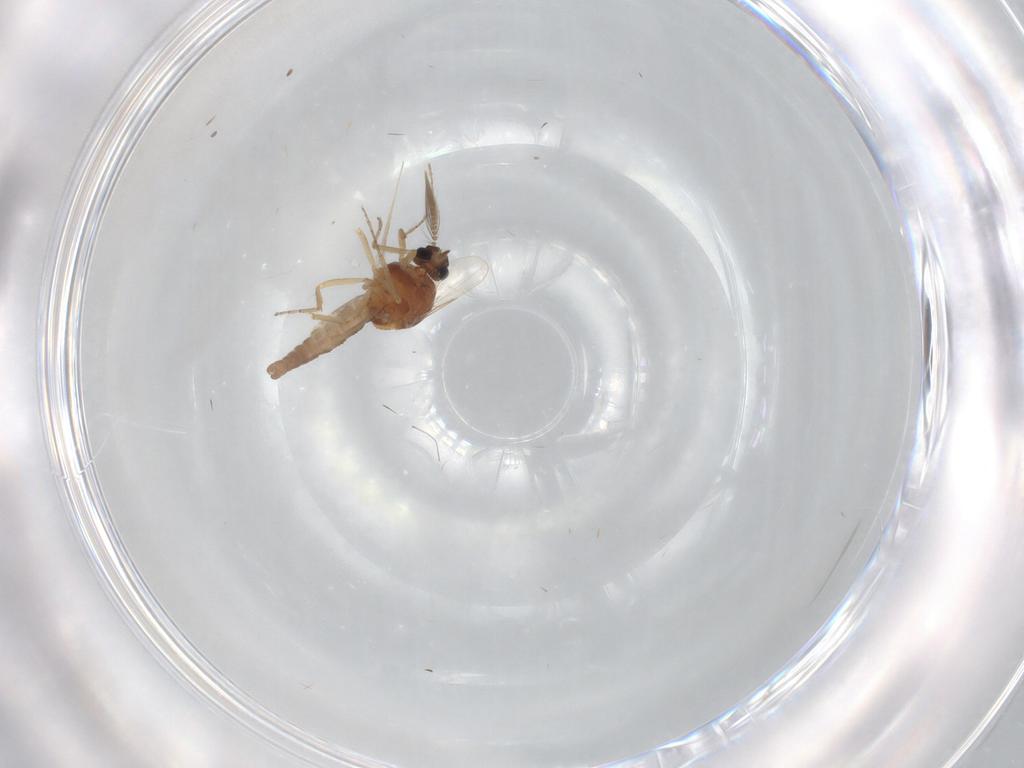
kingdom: Animalia
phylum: Arthropoda
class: Insecta
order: Diptera
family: Ceratopogonidae
